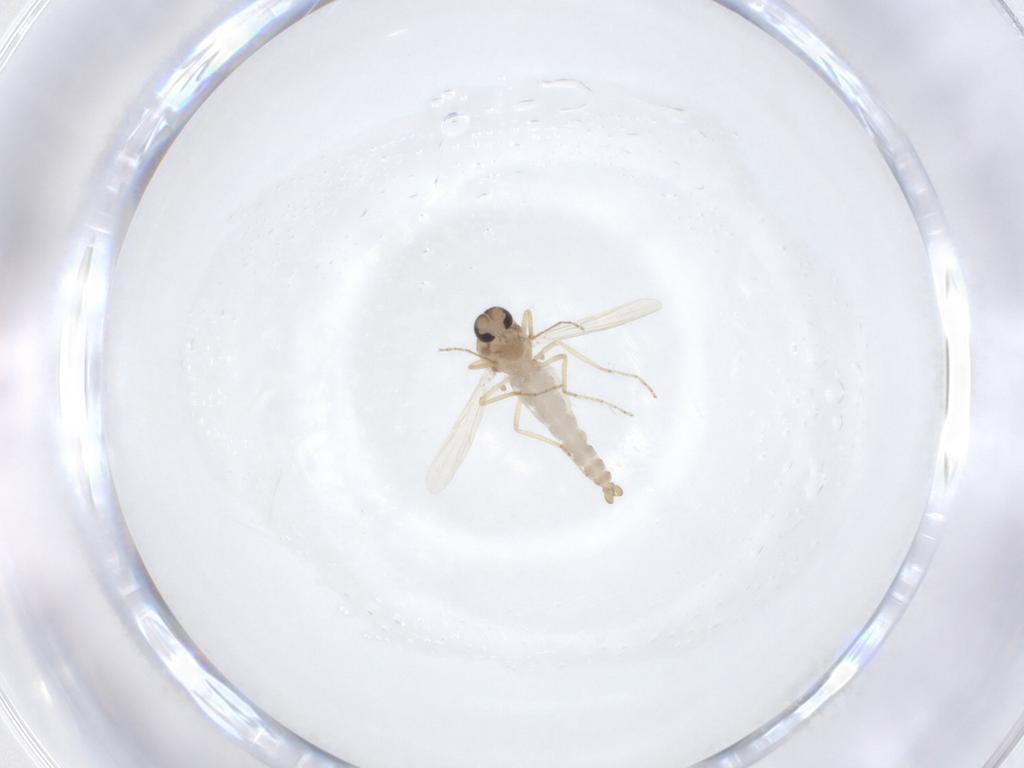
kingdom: Animalia
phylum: Arthropoda
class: Insecta
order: Diptera
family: Ceratopogonidae
